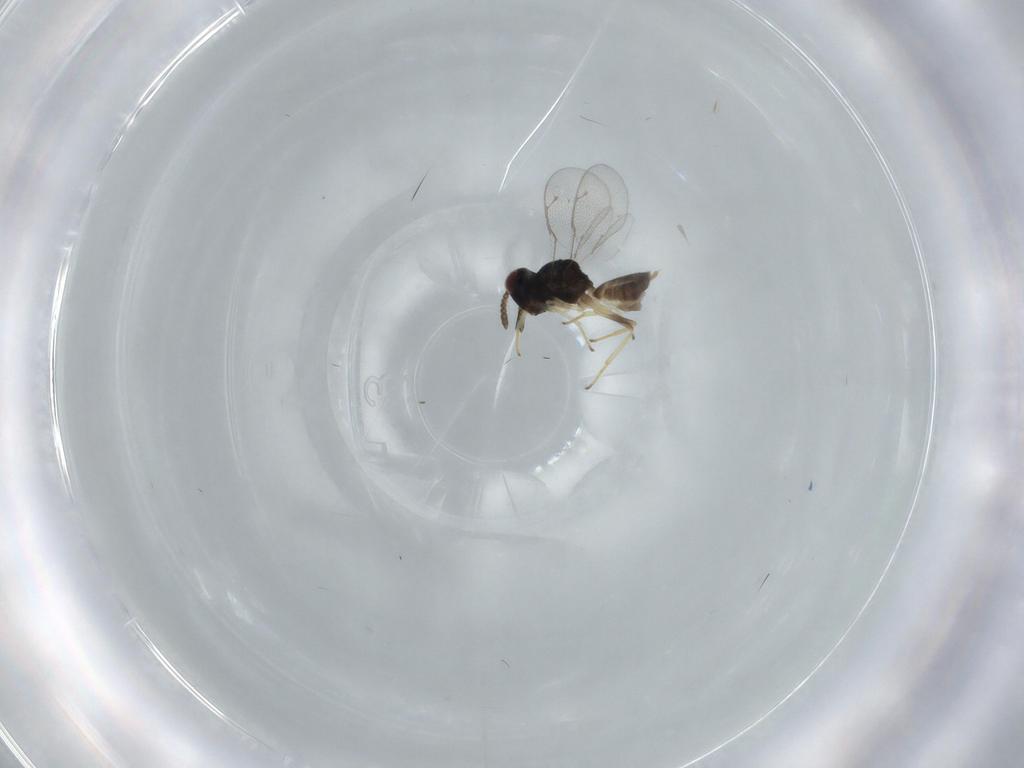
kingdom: Animalia
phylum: Arthropoda
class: Insecta
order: Hymenoptera
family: Pteromalidae
